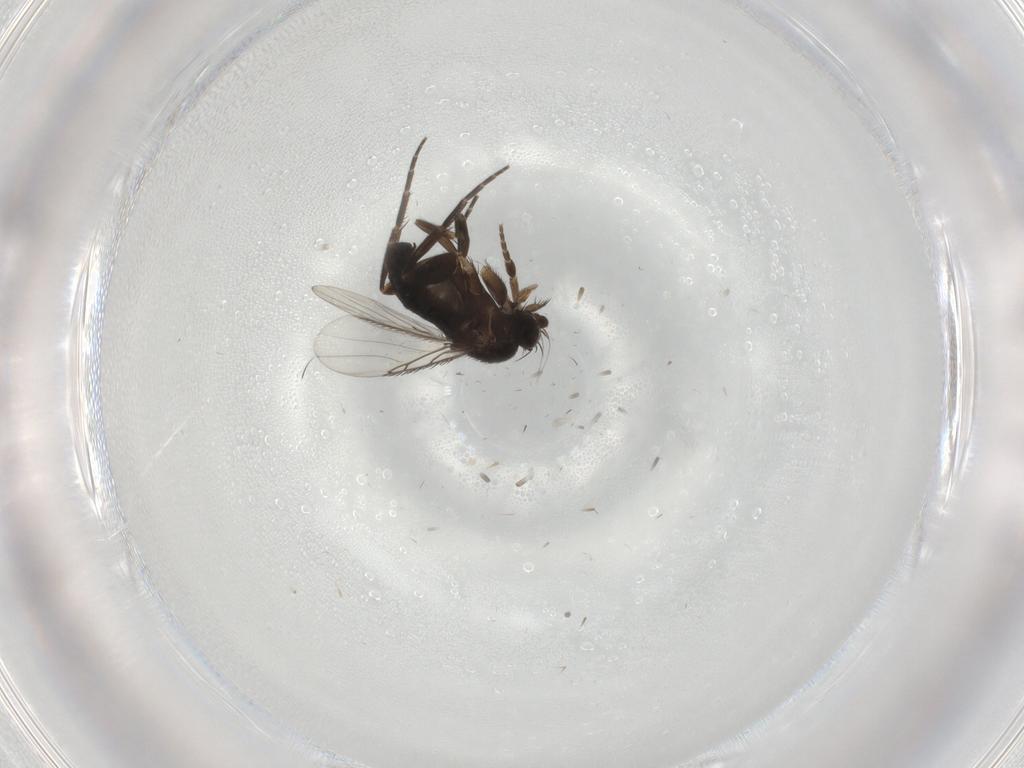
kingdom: Animalia
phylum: Arthropoda
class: Insecta
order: Diptera
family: Phoridae
